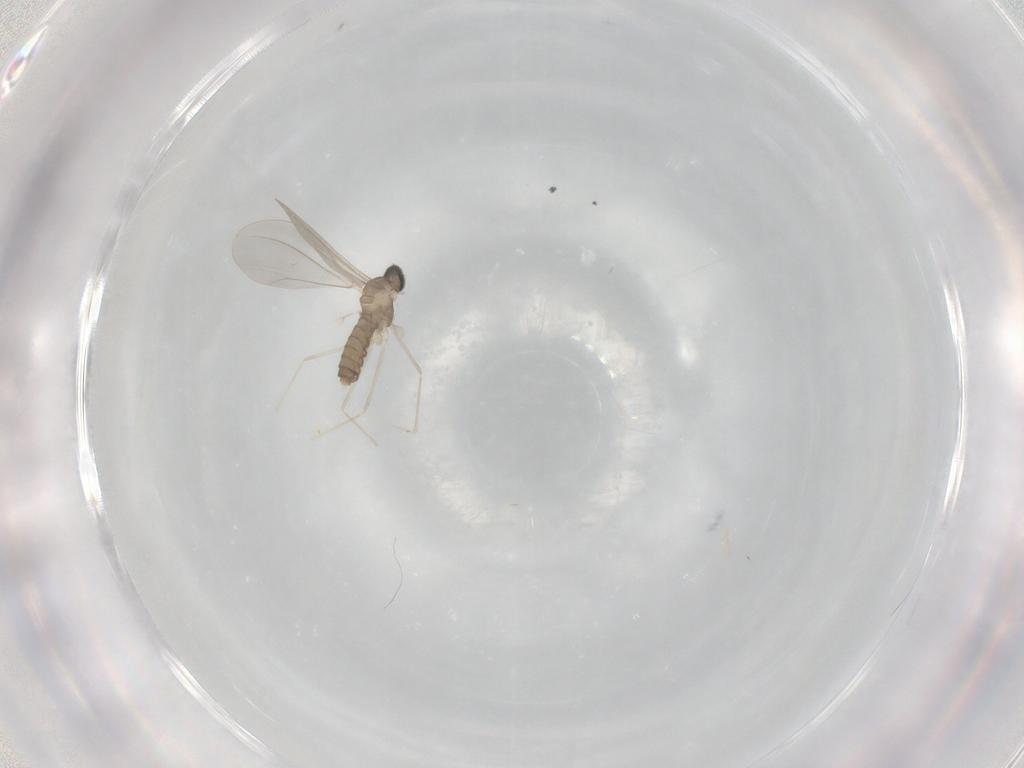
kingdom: Animalia
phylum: Arthropoda
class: Insecta
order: Diptera
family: Cecidomyiidae
